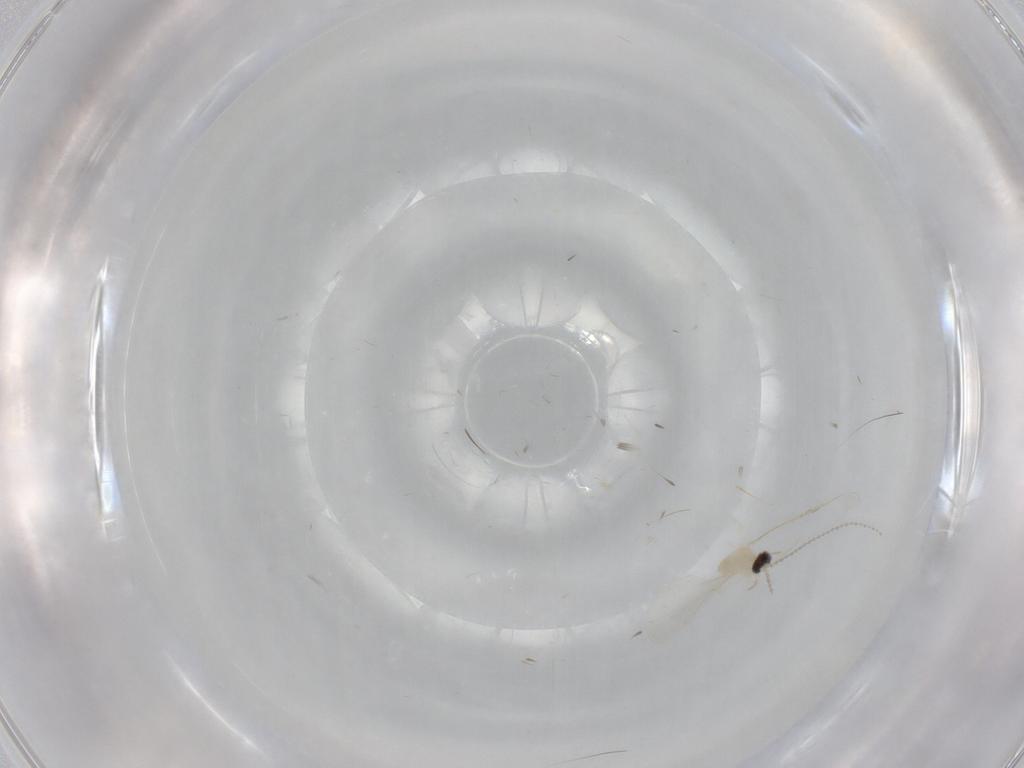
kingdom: Animalia
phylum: Arthropoda
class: Insecta
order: Diptera
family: Cecidomyiidae
